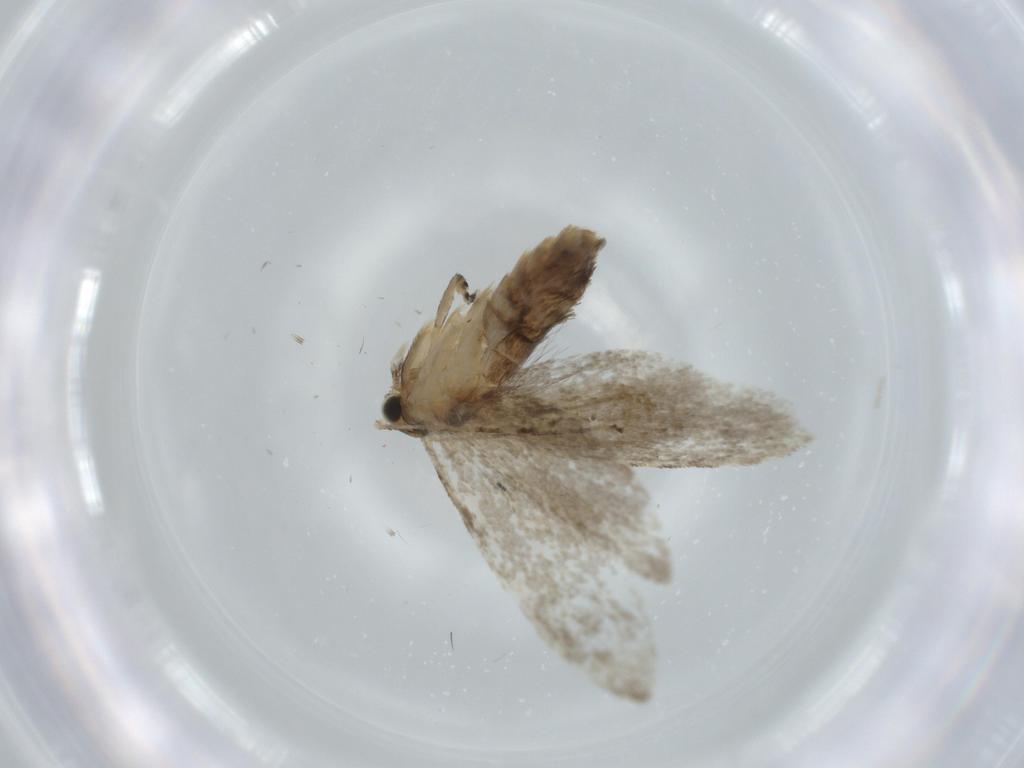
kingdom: Animalia
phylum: Arthropoda
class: Insecta
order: Lepidoptera
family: Tineidae
